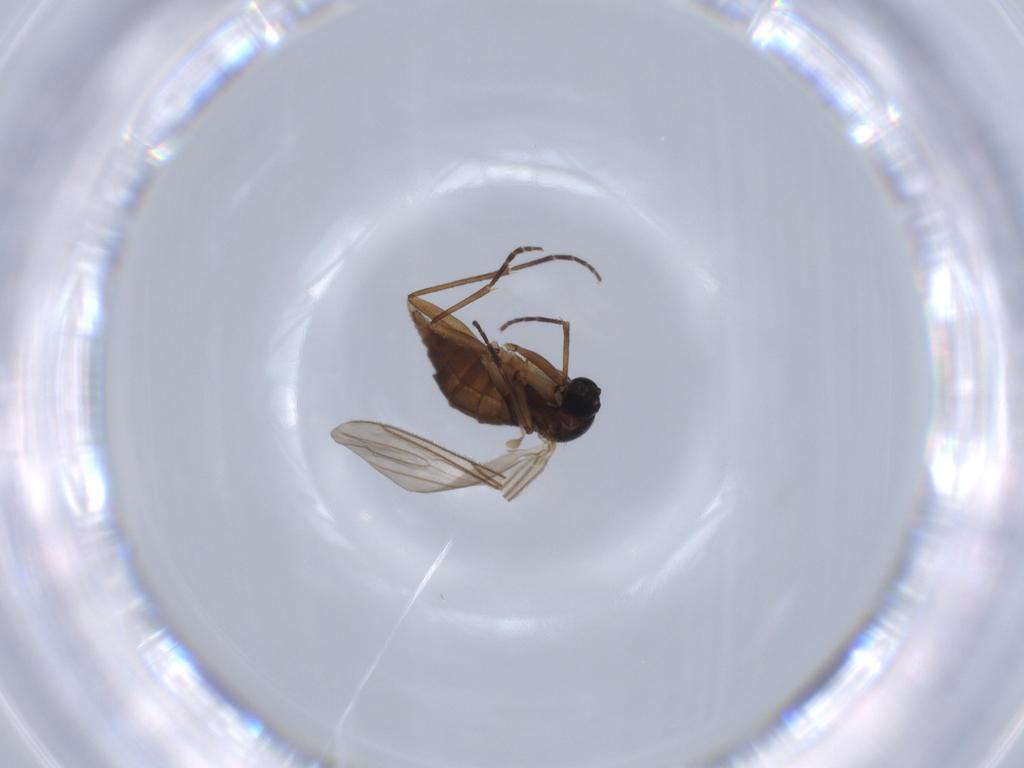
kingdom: Animalia
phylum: Arthropoda
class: Insecta
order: Diptera
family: Sciaridae
